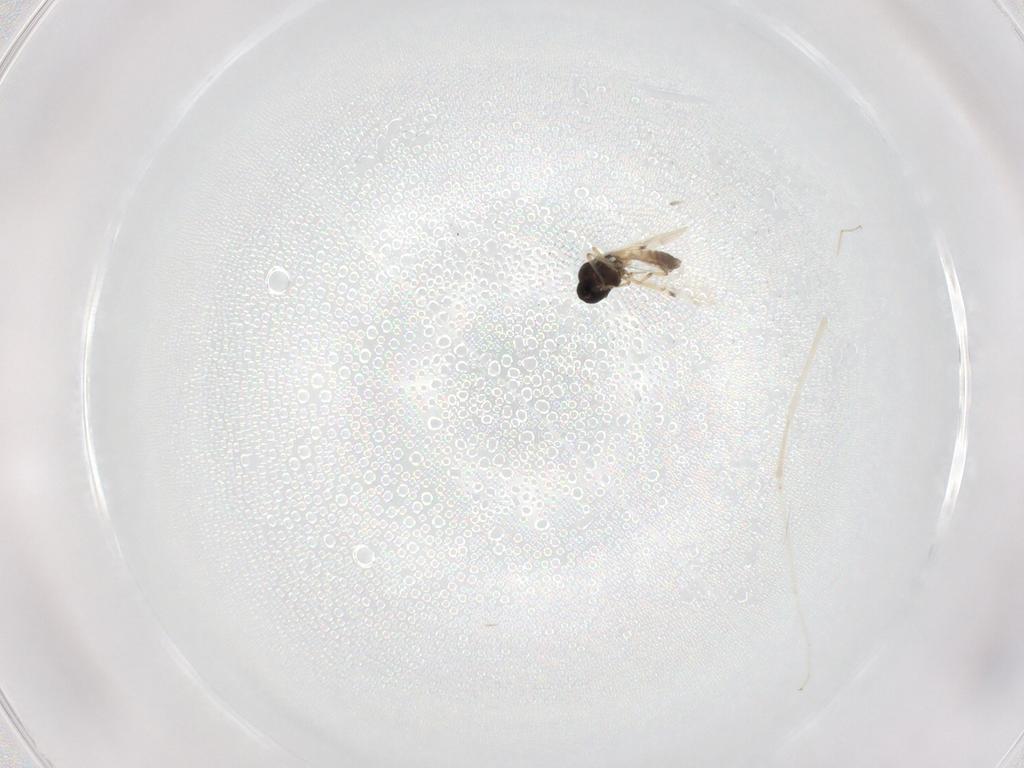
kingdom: Animalia
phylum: Arthropoda
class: Insecta
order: Diptera
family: Cecidomyiidae
